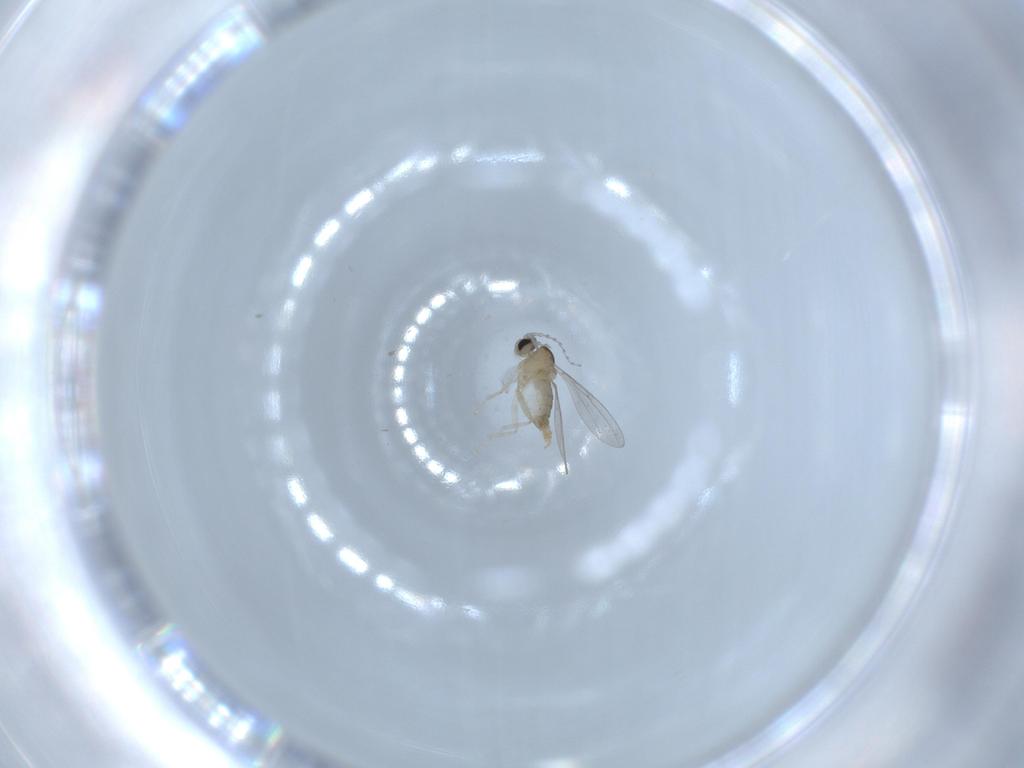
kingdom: Animalia
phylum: Arthropoda
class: Insecta
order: Diptera
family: Cecidomyiidae
